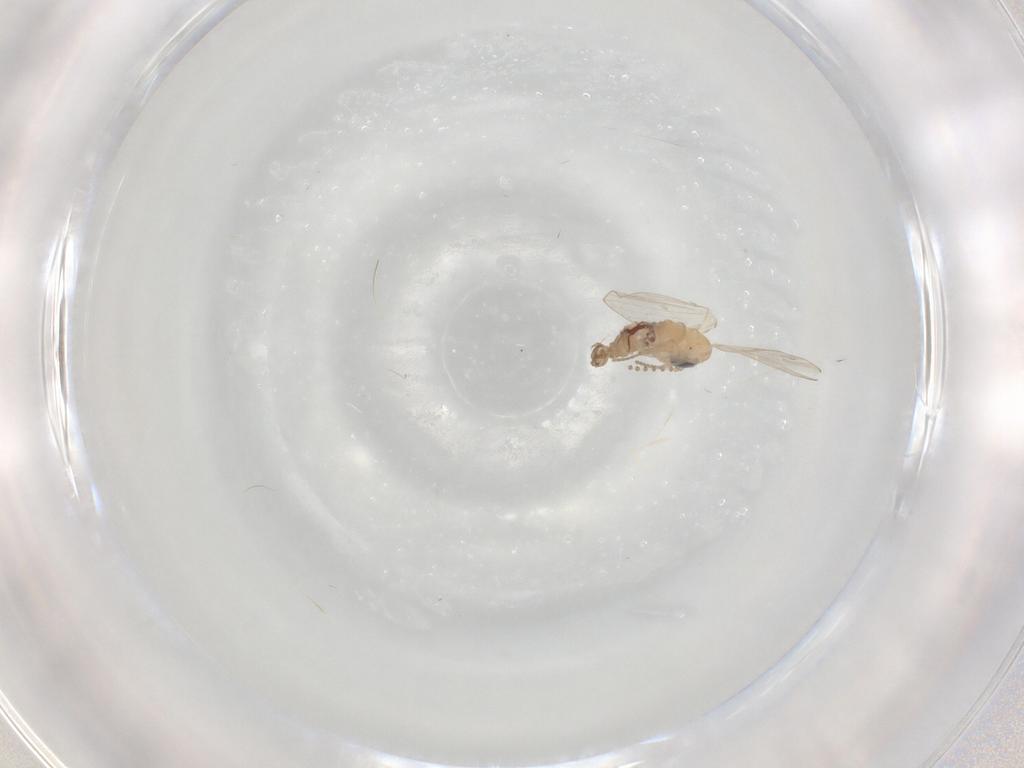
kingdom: Animalia
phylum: Arthropoda
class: Insecta
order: Diptera
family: Psychodidae
